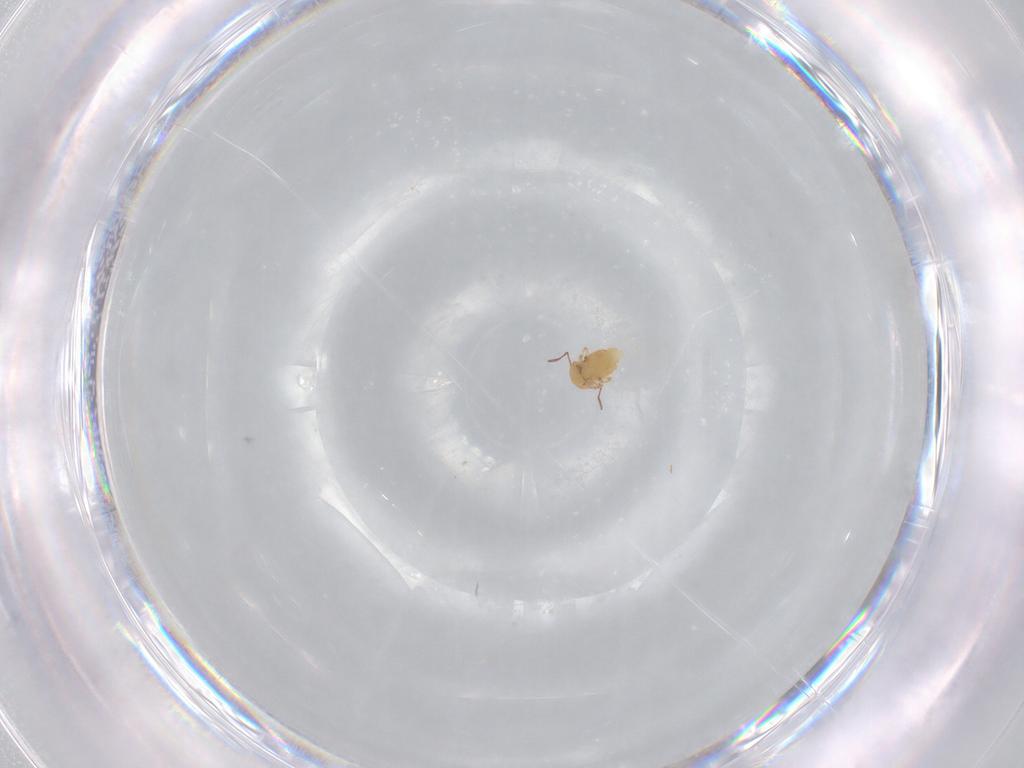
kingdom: Animalia
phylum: Arthropoda
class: Collembola
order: Symphypleona
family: Bourletiellidae
